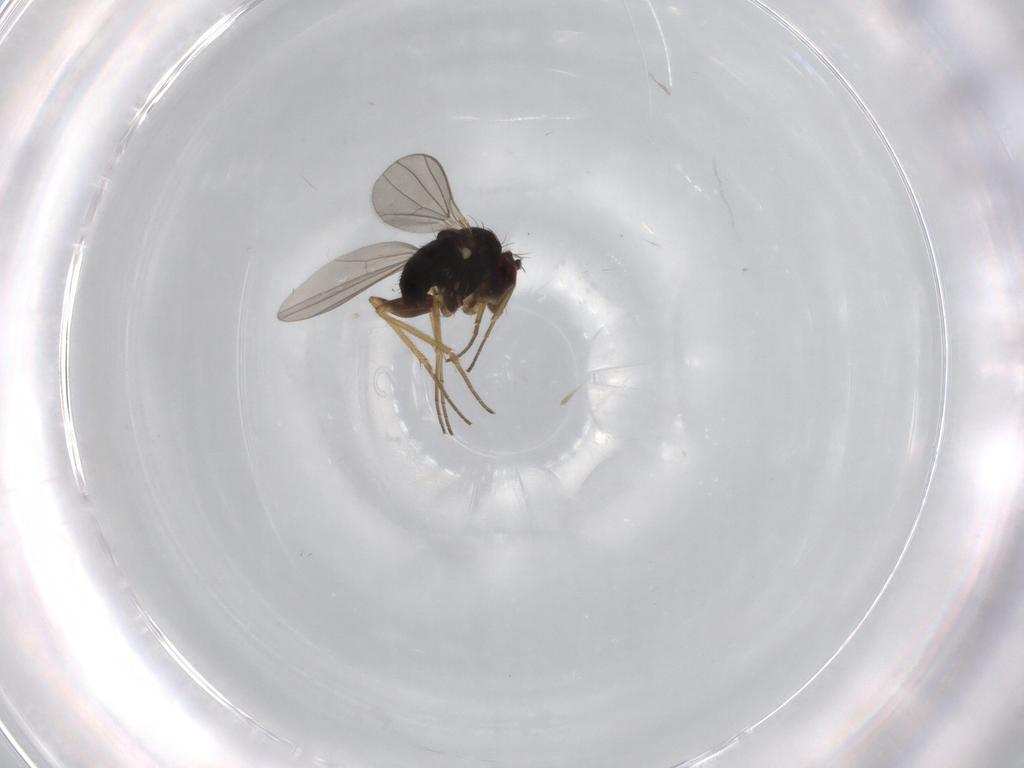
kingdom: Animalia
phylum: Arthropoda
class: Insecta
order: Diptera
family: Dolichopodidae
